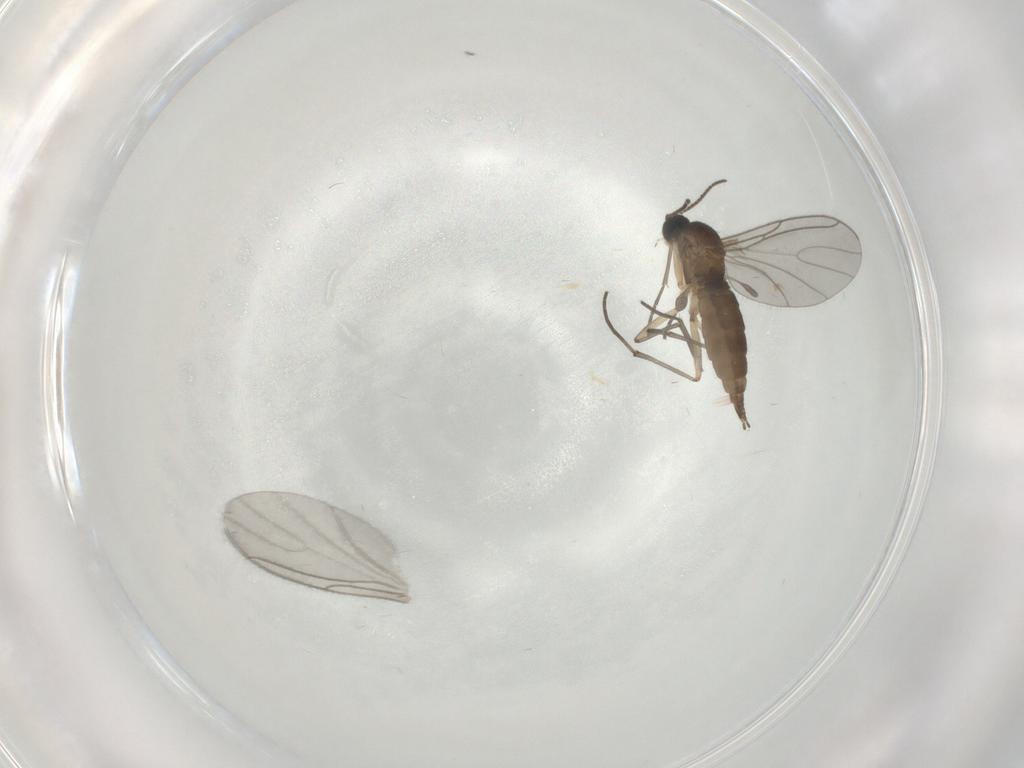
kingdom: Animalia
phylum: Arthropoda
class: Insecta
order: Diptera
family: Sciaridae
